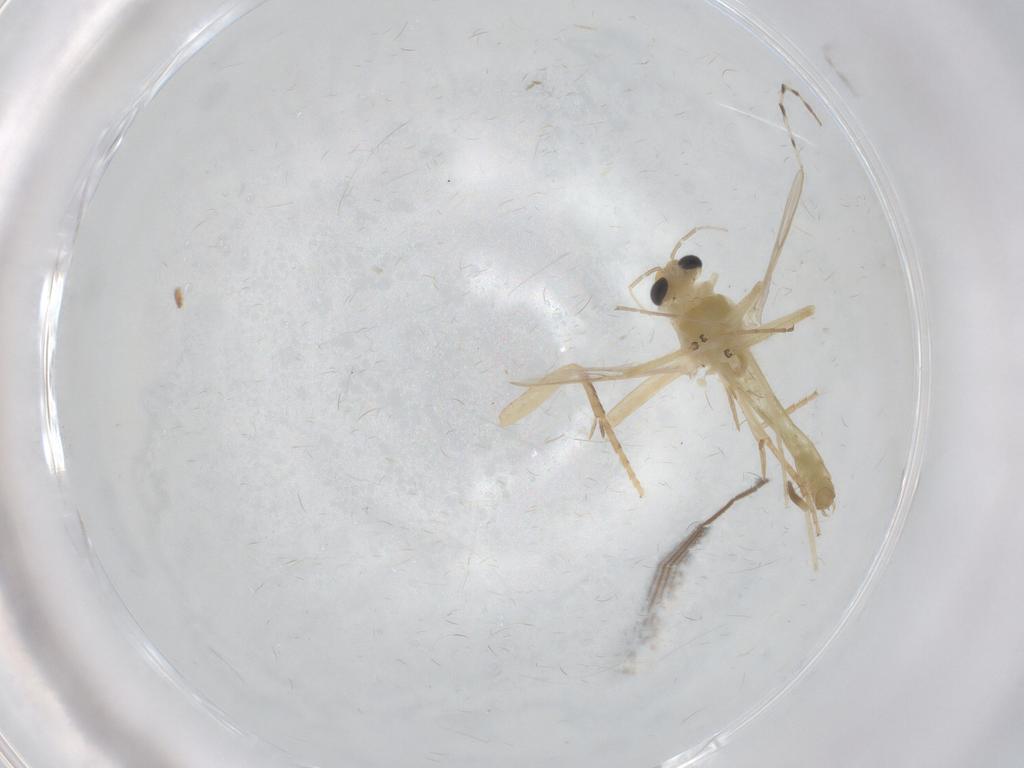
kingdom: Animalia
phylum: Arthropoda
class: Insecta
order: Diptera
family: Chironomidae
